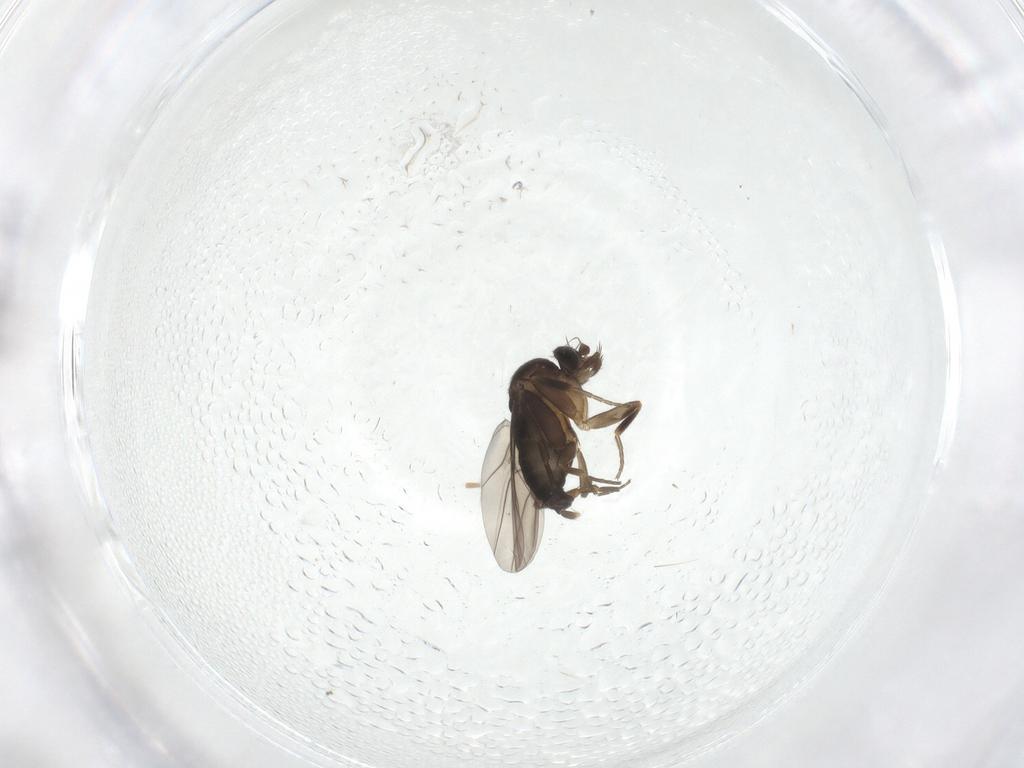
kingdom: Animalia
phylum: Arthropoda
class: Insecta
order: Diptera
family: Phoridae
